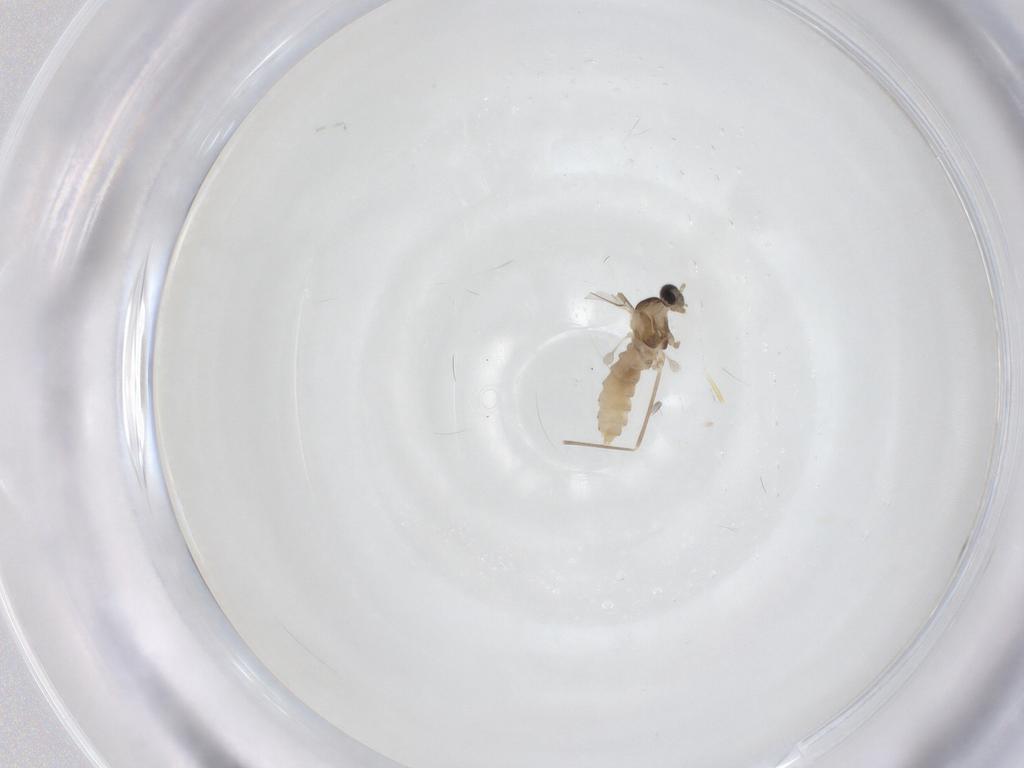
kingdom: Animalia
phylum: Arthropoda
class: Insecta
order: Diptera
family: Cecidomyiidae
